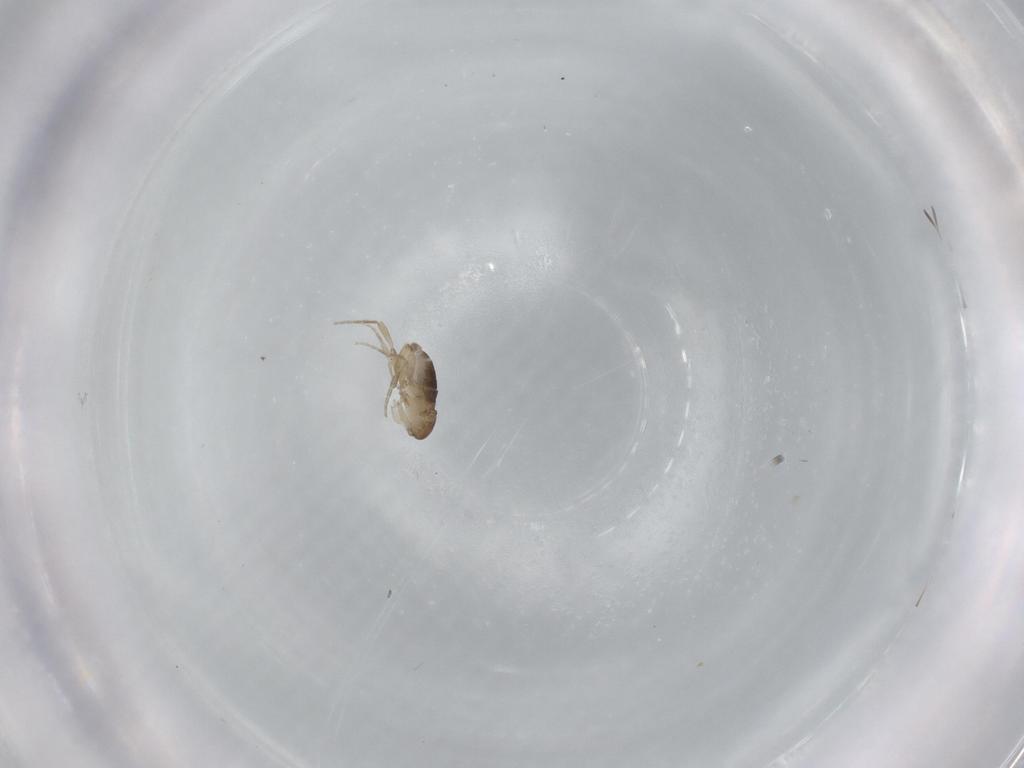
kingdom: Animalia
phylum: Arthropoda
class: Insecta
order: Diptera
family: Phoridae
